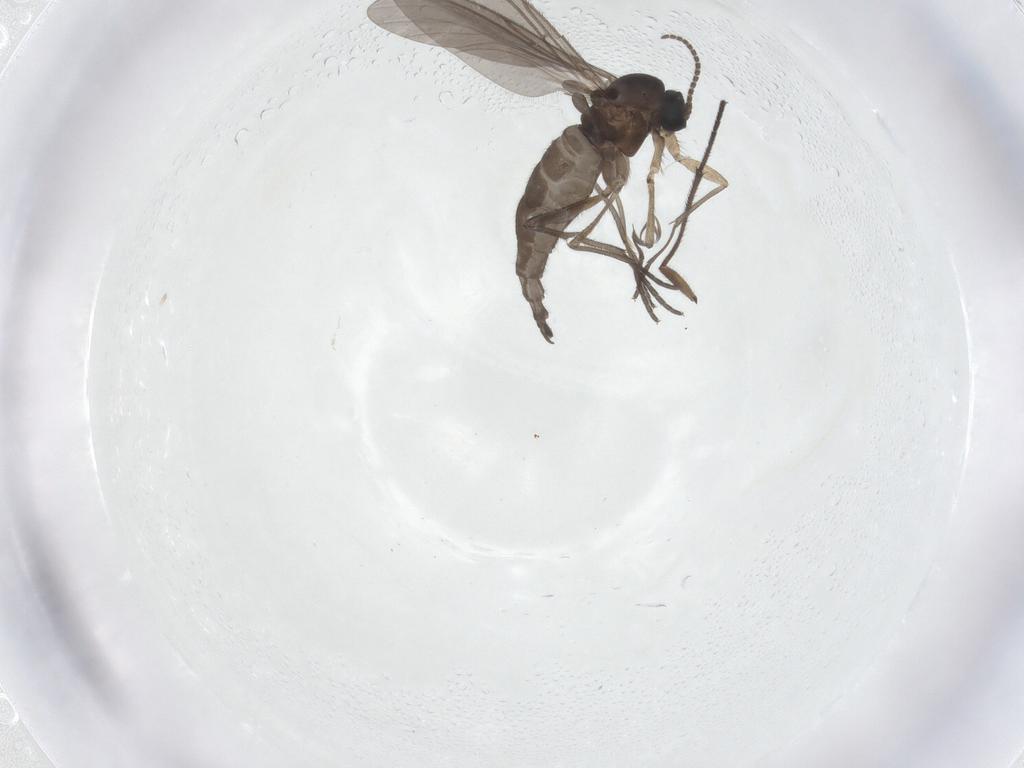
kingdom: Animalia
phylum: Arthropoda
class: Insecta
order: Diptera
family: Sciaridae
